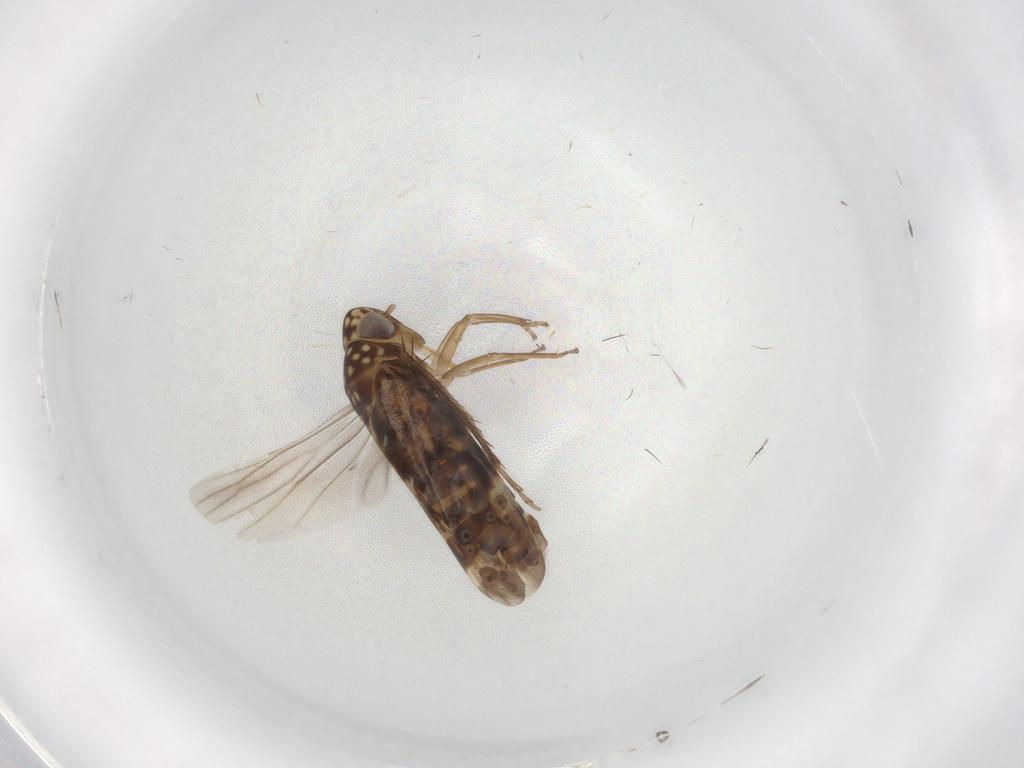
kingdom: Animalia
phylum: Arthropoda
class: Insecta
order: Hemiptera
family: Cicadellidae
